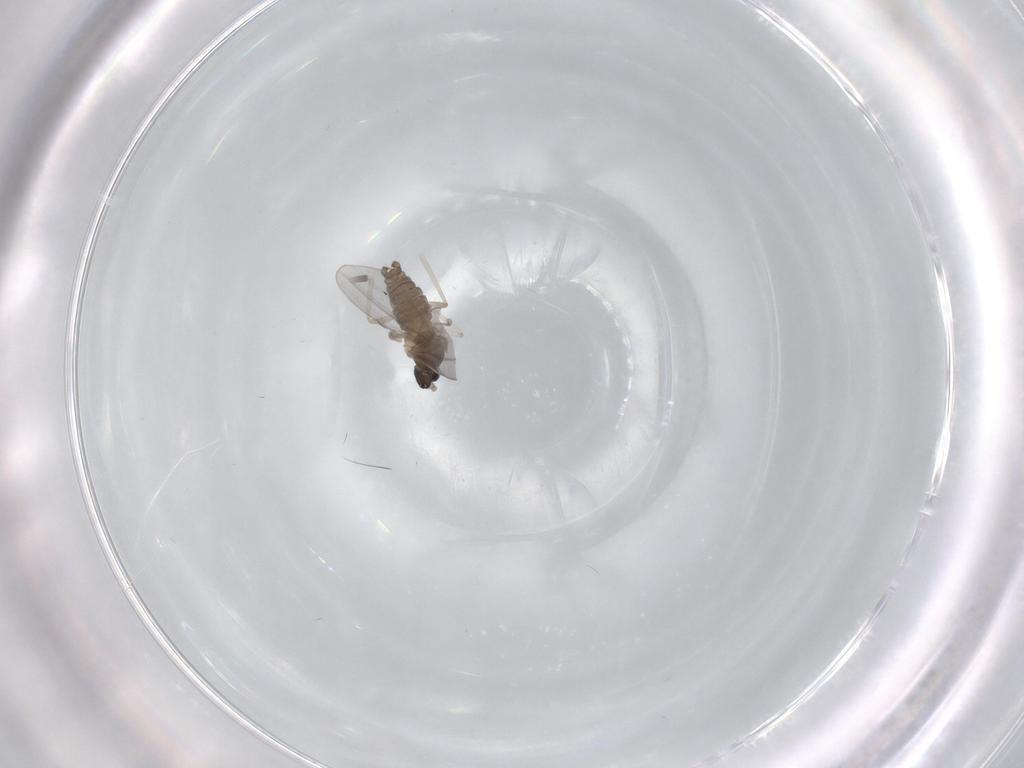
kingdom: Animalia
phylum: Arthropoda
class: Insecta
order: Diptera
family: Cecidomyiidae
